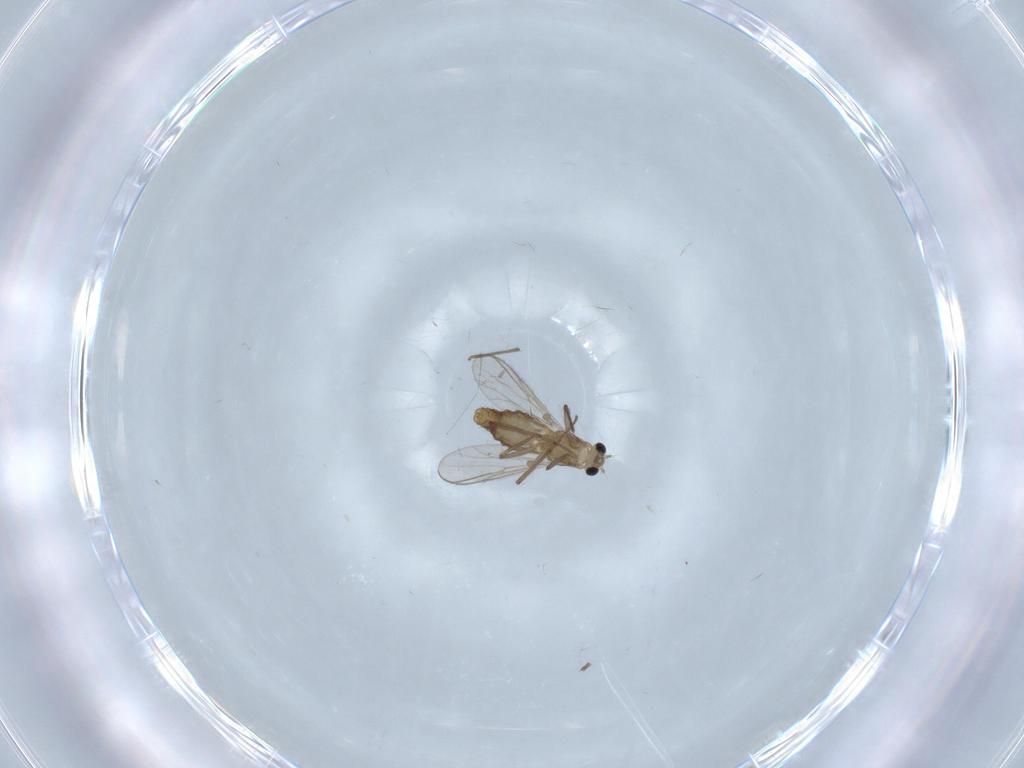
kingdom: Animalia
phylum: Arthropoda
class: Insecta
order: Diptera
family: Chironomidae
